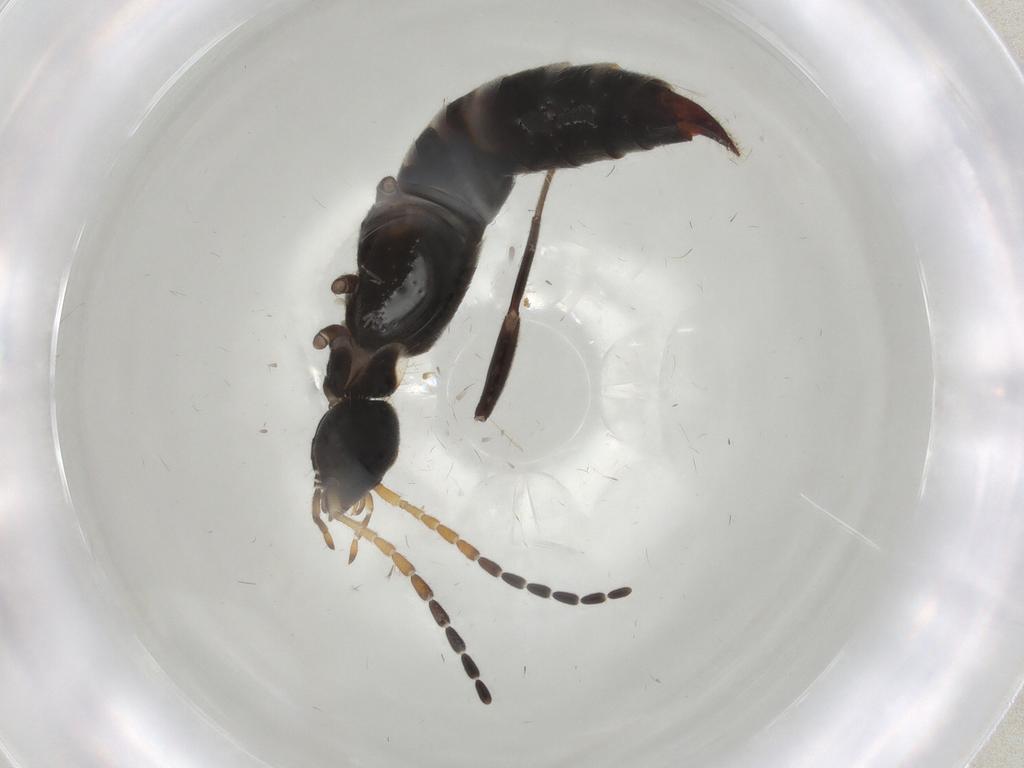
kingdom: Animalia
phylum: Arthropoda
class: Insecta
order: Dermaptera
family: Forficulidae
